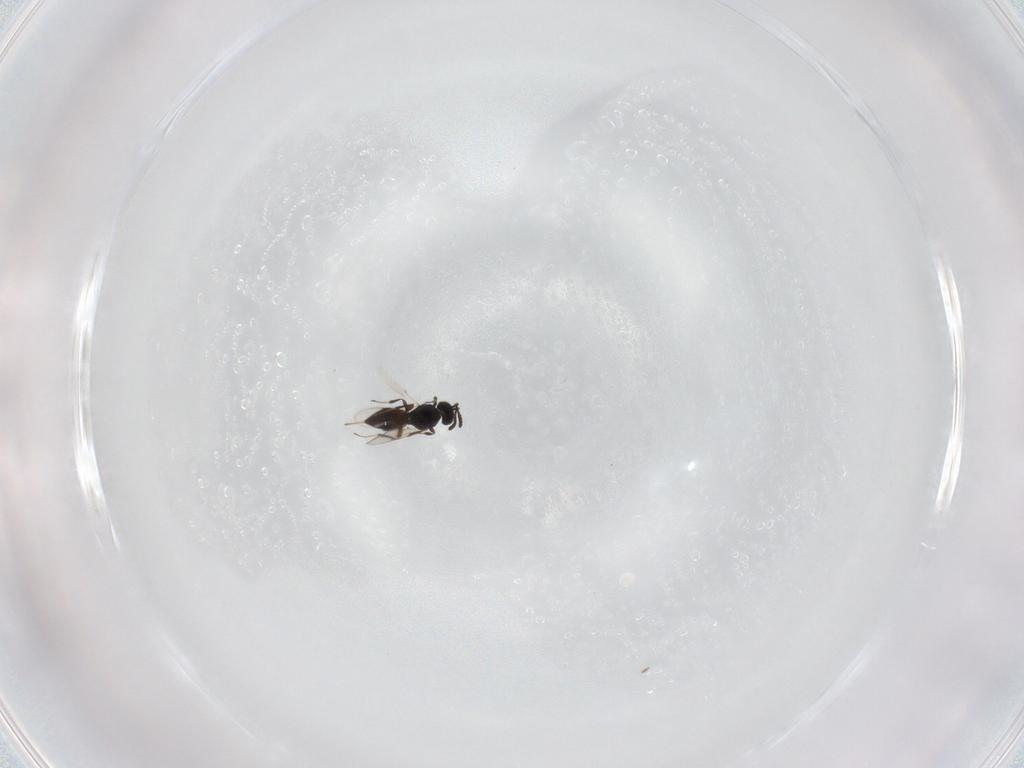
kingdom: Animalia
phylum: Arthropoda
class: Insecta
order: Hymenoptera
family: Scelionidae
